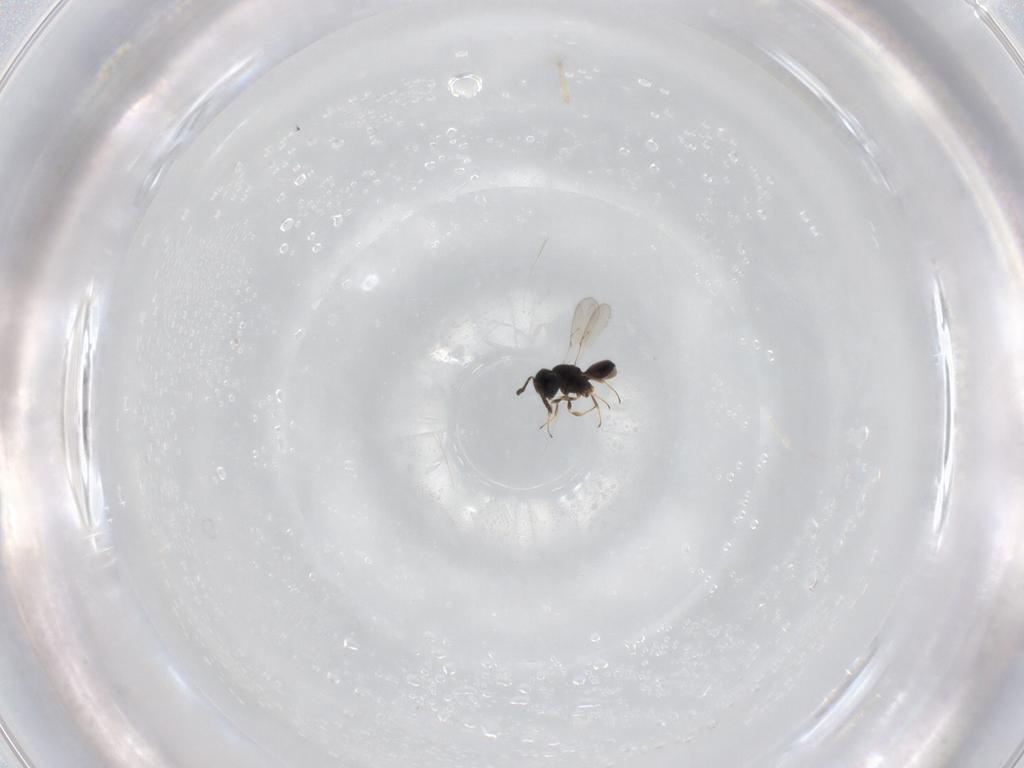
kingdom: Animalia
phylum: Arthropoda
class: Insecta
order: Hymenoptera
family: Scelionidae
